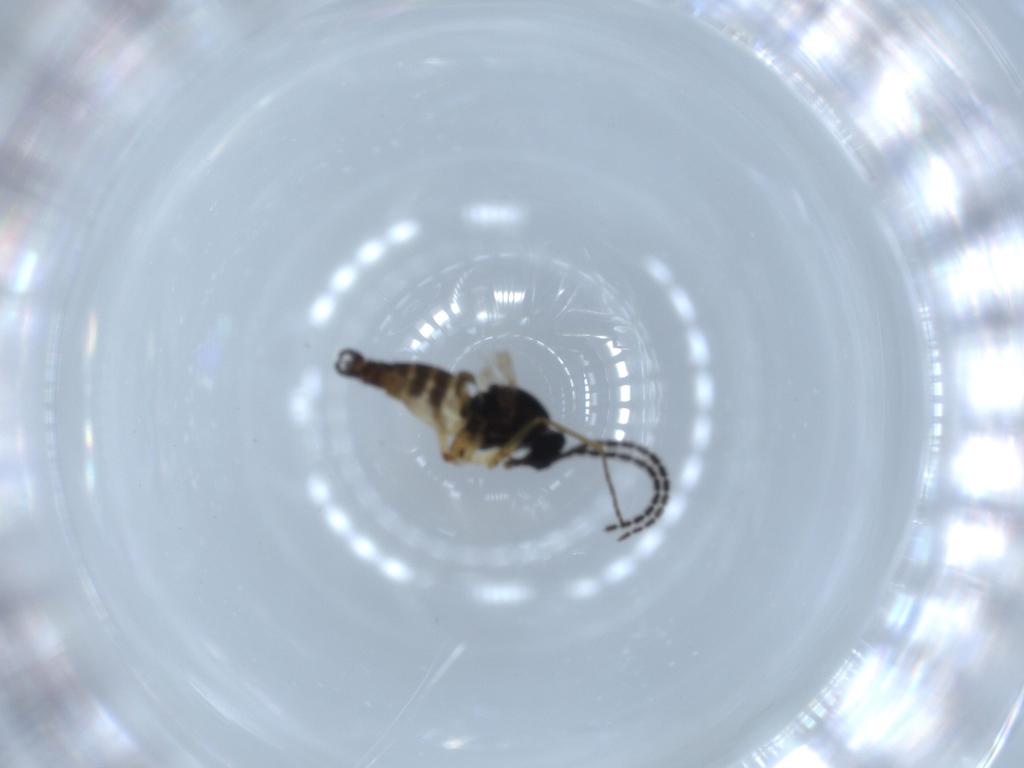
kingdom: Animalia
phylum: Arthropoda
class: Insecta
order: Diptera
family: Sciaridae
